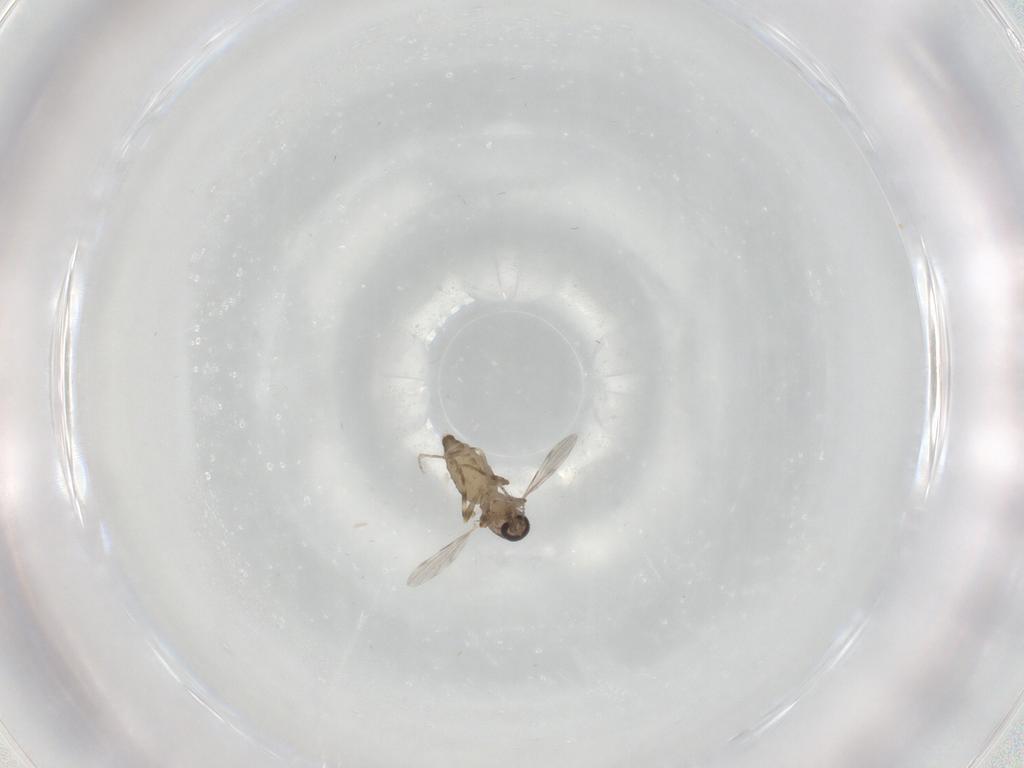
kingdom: Animalia
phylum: Arthropoda
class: Insecta
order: Diptera
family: Ceratopogonidae
